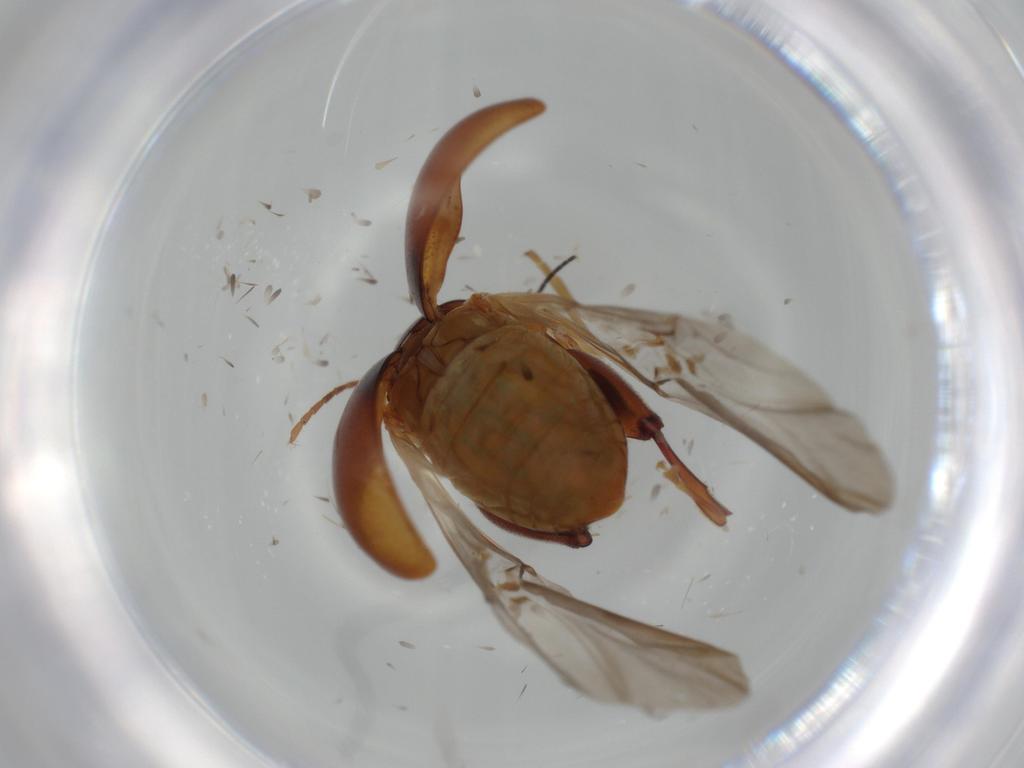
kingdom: Animalia
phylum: Arthropoda
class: Insecta
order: Coleoptera
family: Chrysomelidae
